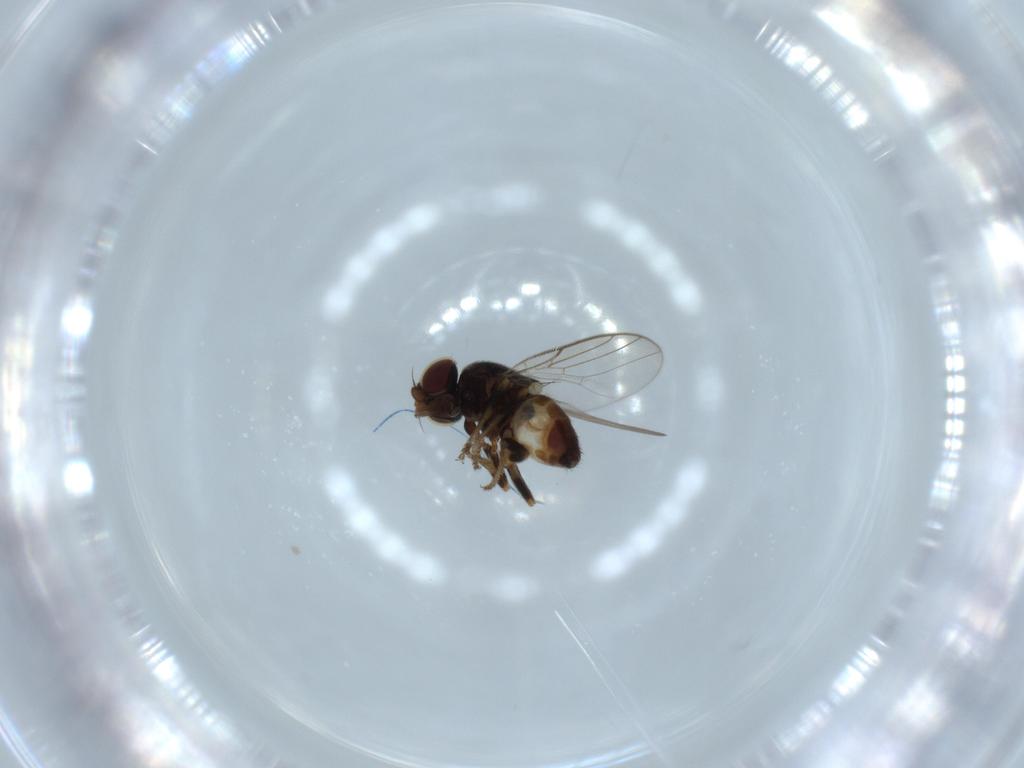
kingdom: Animalia
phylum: Arthropoda
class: Insecta
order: Diptera
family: Chloropidae
